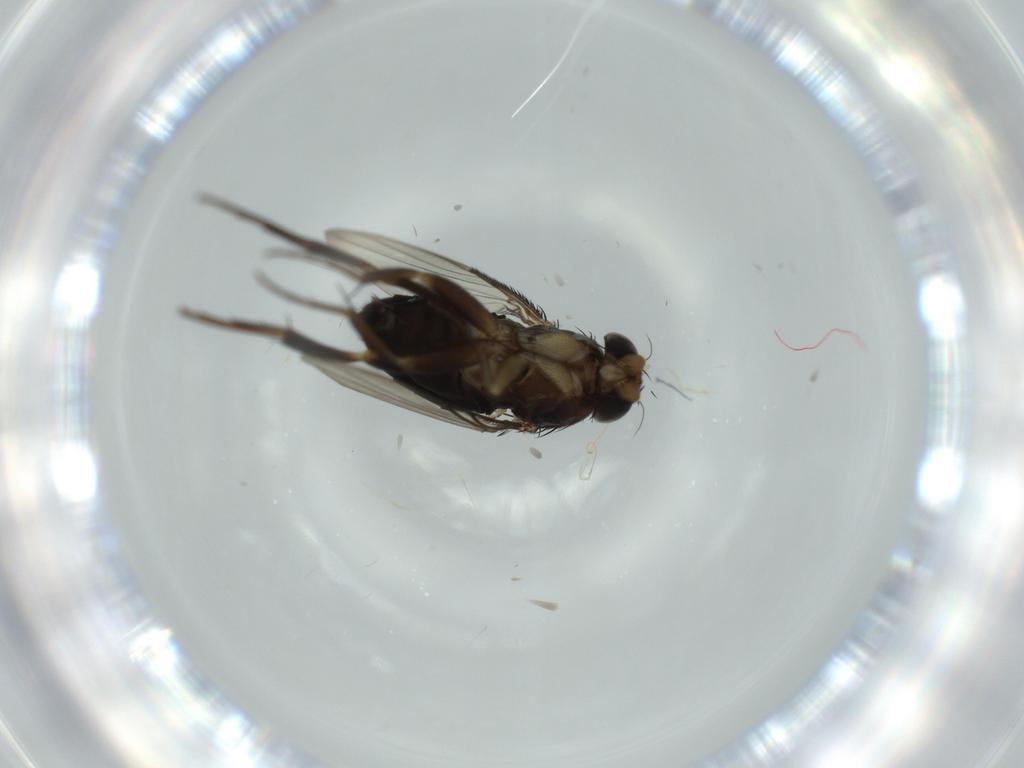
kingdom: Animalia
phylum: Arthropoda
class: Insecta
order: Diptera
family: Phoridae
